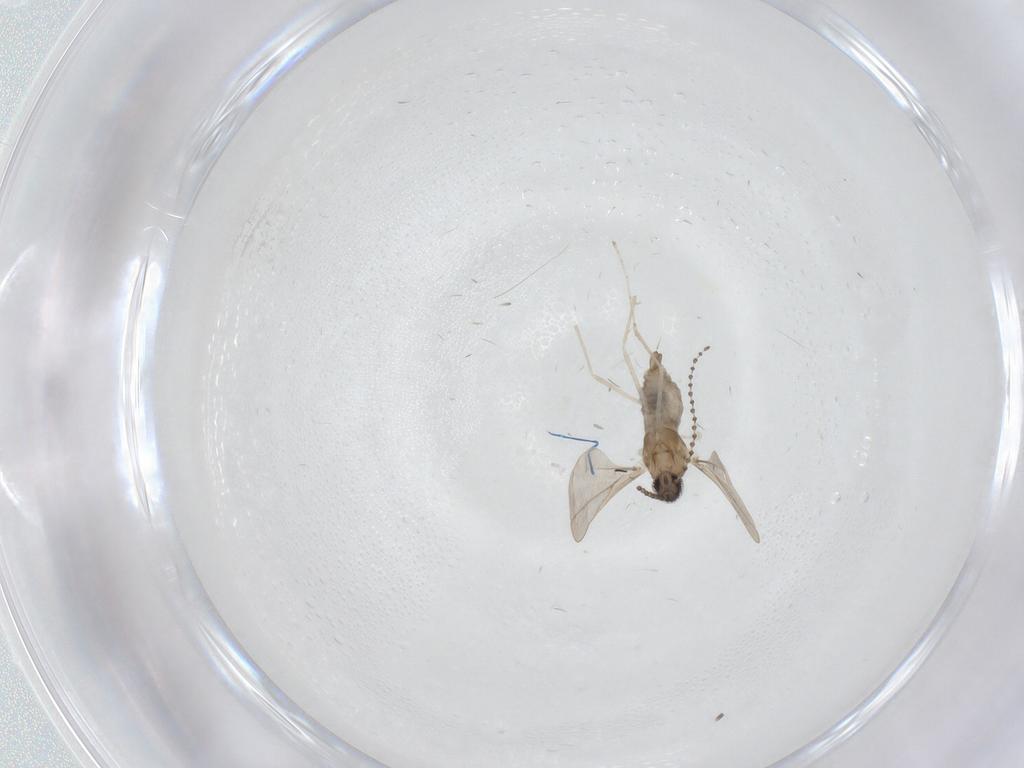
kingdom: Animalia
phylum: Arthropoda
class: Insecta
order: Diptera
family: Cecidomyiidae
